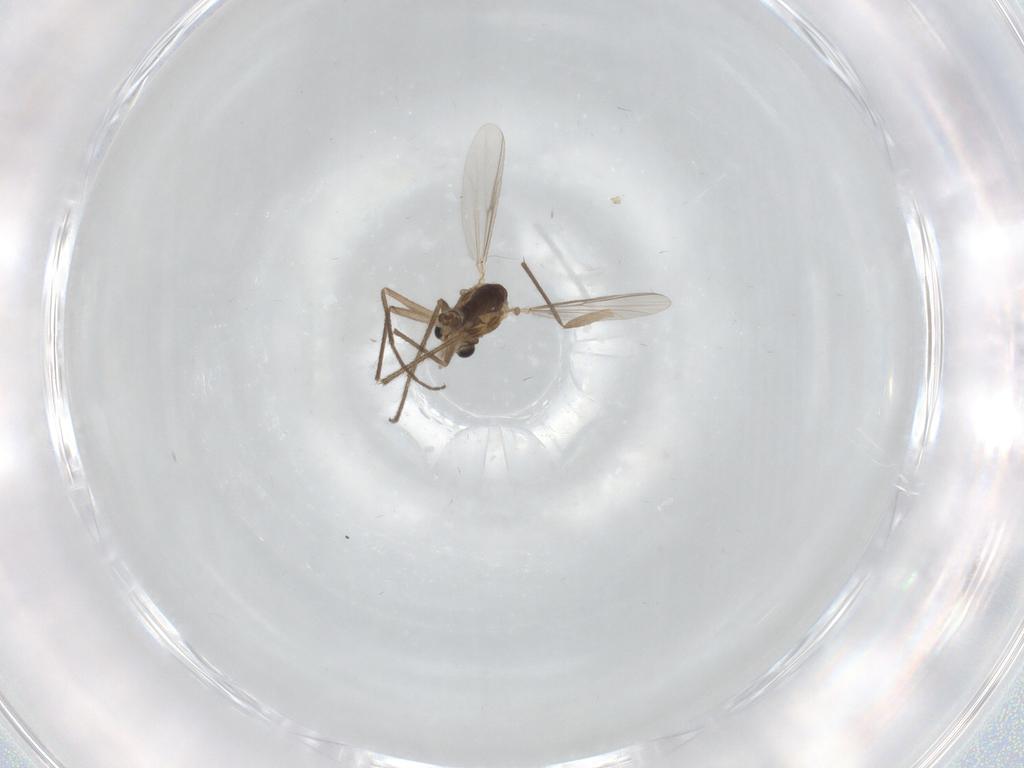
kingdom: Animalia
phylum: Arthropoda
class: Insecta
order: Diptera
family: Chironomidae
